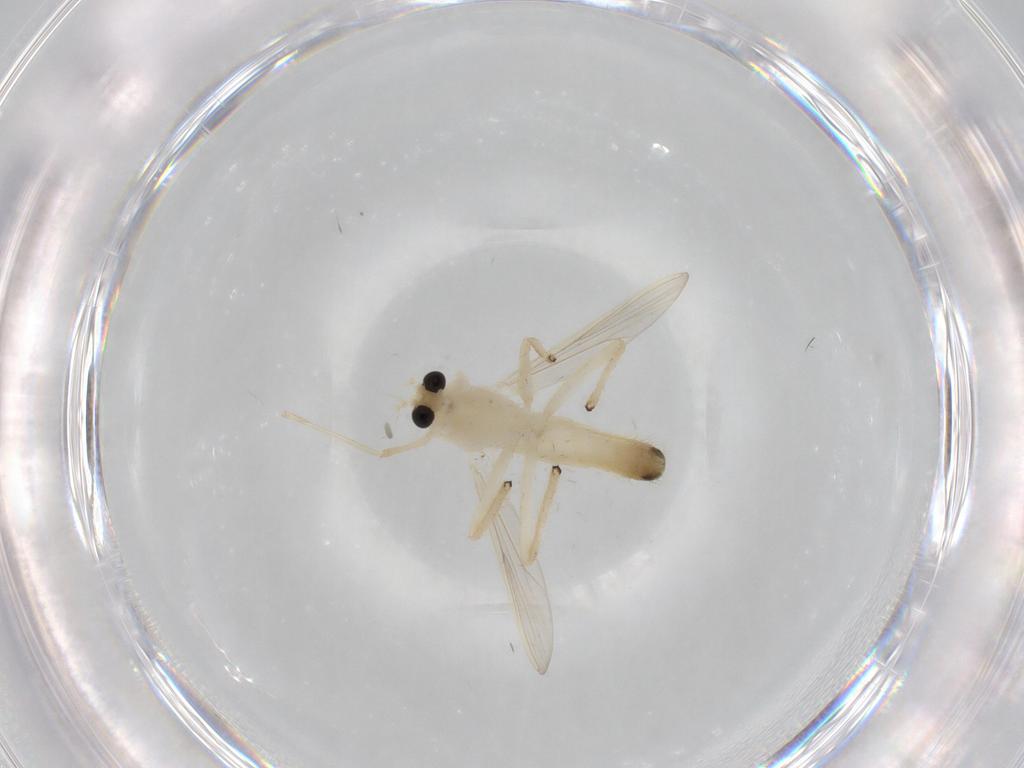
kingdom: Animalia
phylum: Arthropoda
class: Insecta
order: Diptera
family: Chironomidae
